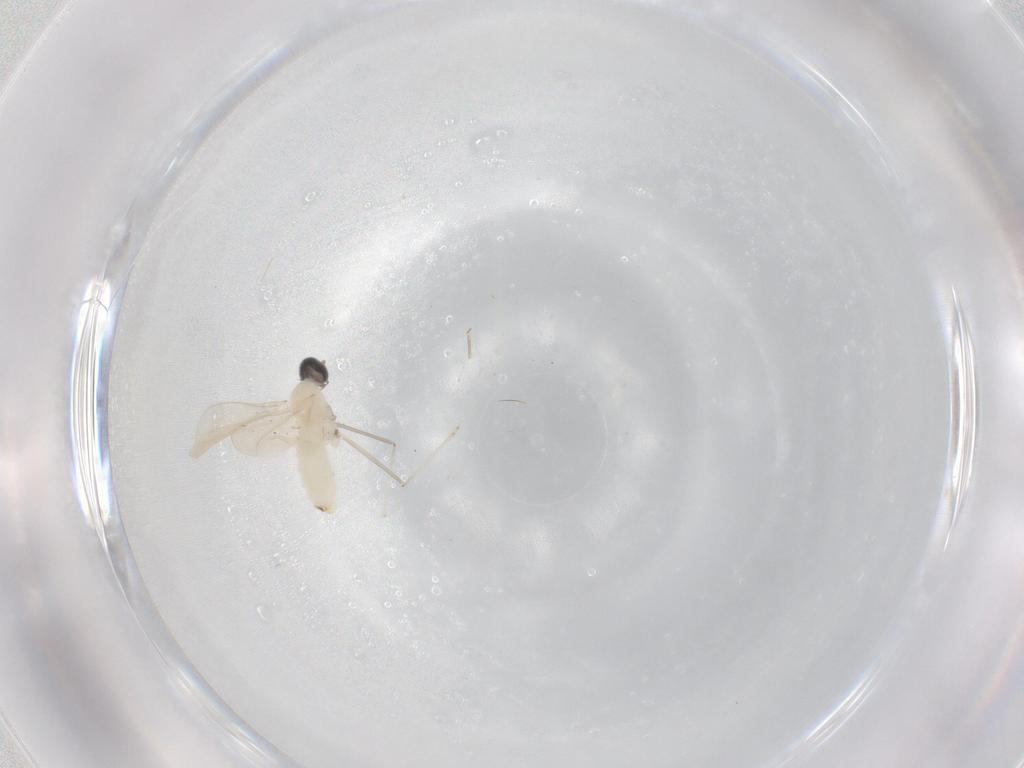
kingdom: Animalia
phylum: Arthropoda
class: Insecta
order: Diptera
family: Cecidomyiidae
